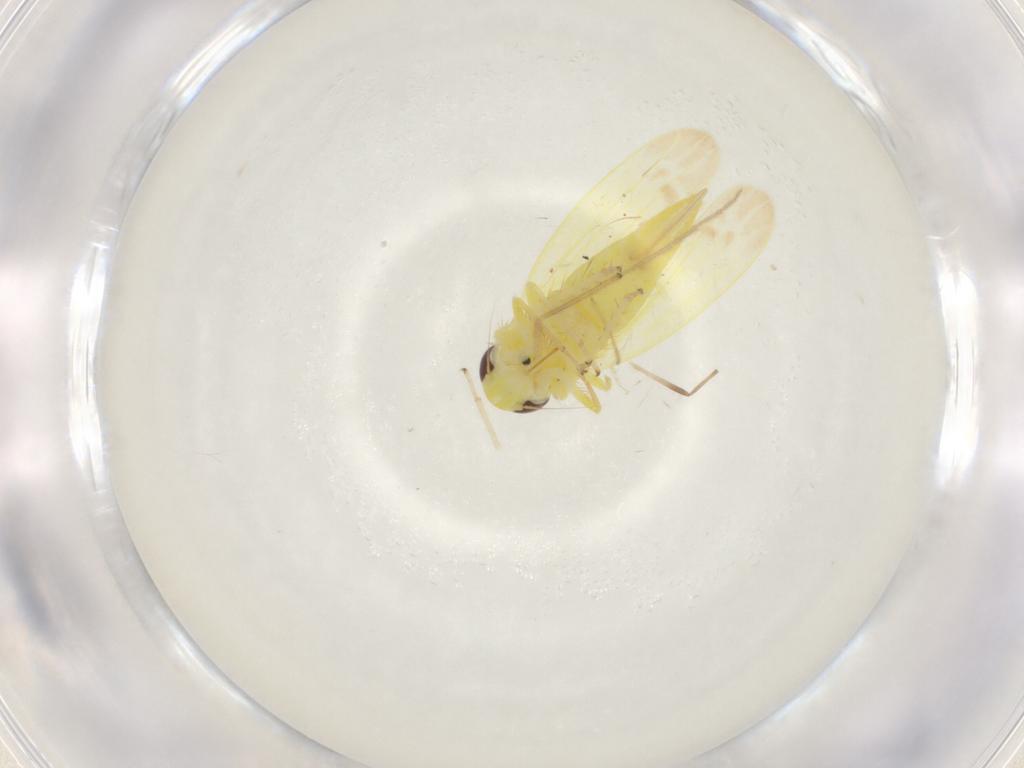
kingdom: Animalia
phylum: Arthropoda
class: Insecta
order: Hemiptera
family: Cicadellidae
